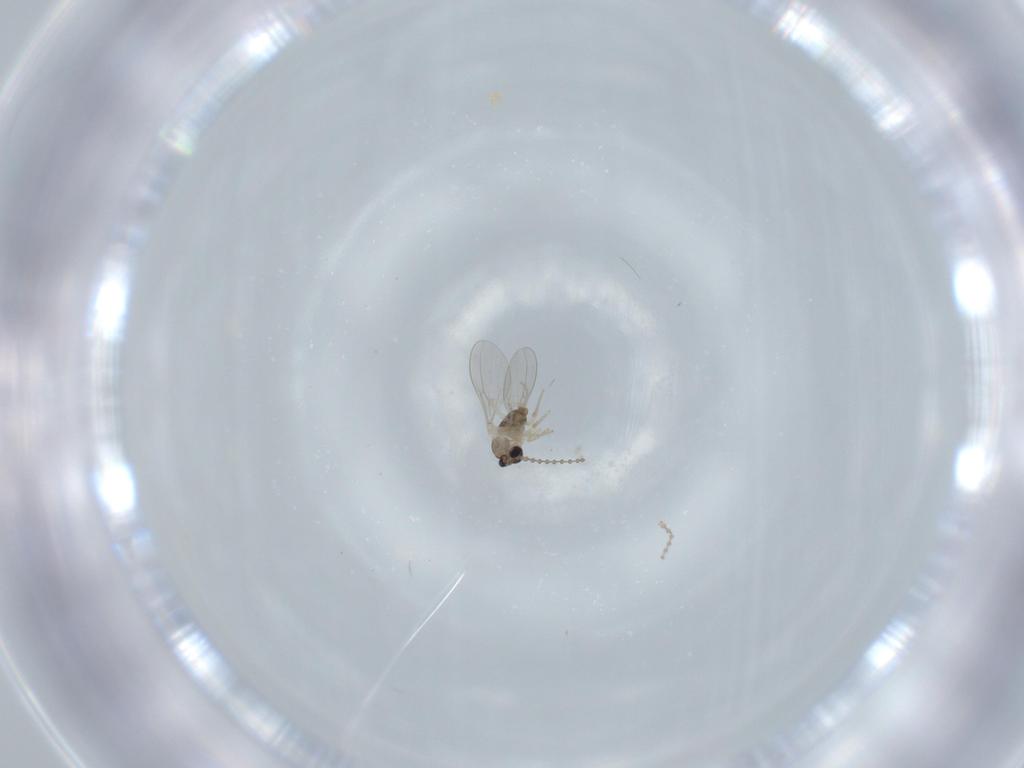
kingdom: Animalia
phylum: Arthropoda
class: Insecta
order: Diptera
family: Cecidomyiidae
